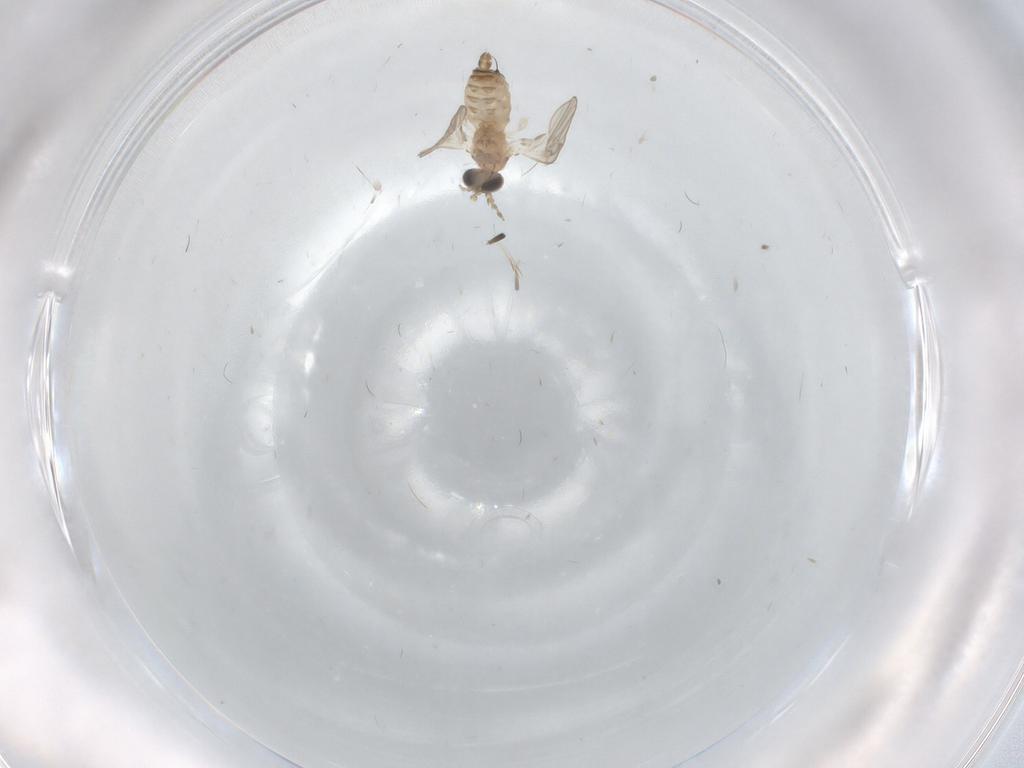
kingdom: Animalia
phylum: Arthropoda
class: Insecta
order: Diptera
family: Psychodidae
